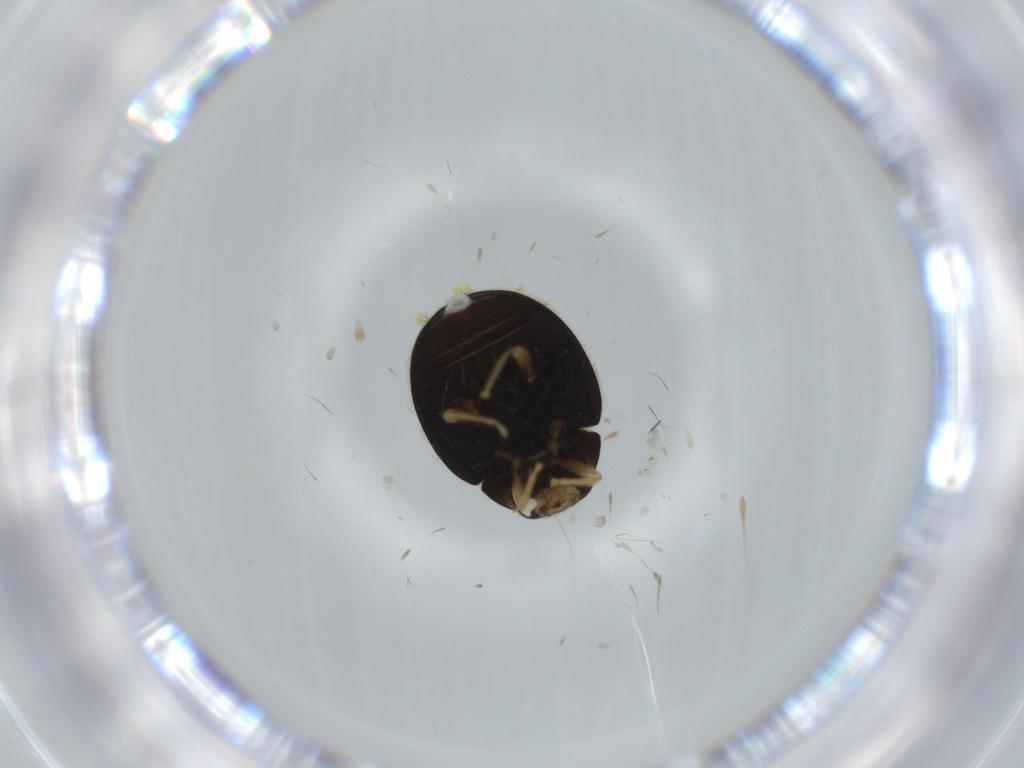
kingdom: Animalia
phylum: Arthropoda
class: Insecta
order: Coleoptera
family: Coccinellidae
